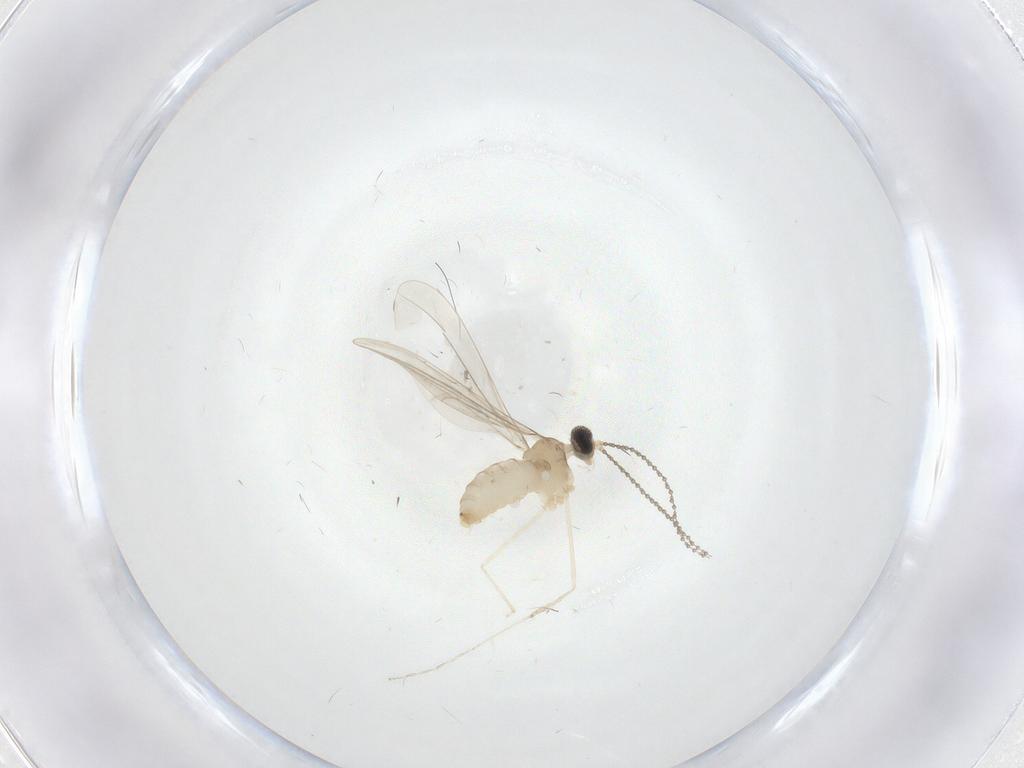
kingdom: Animalia
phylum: Arthropoda
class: Insecta
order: Diptera
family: Cecidomyiidae
